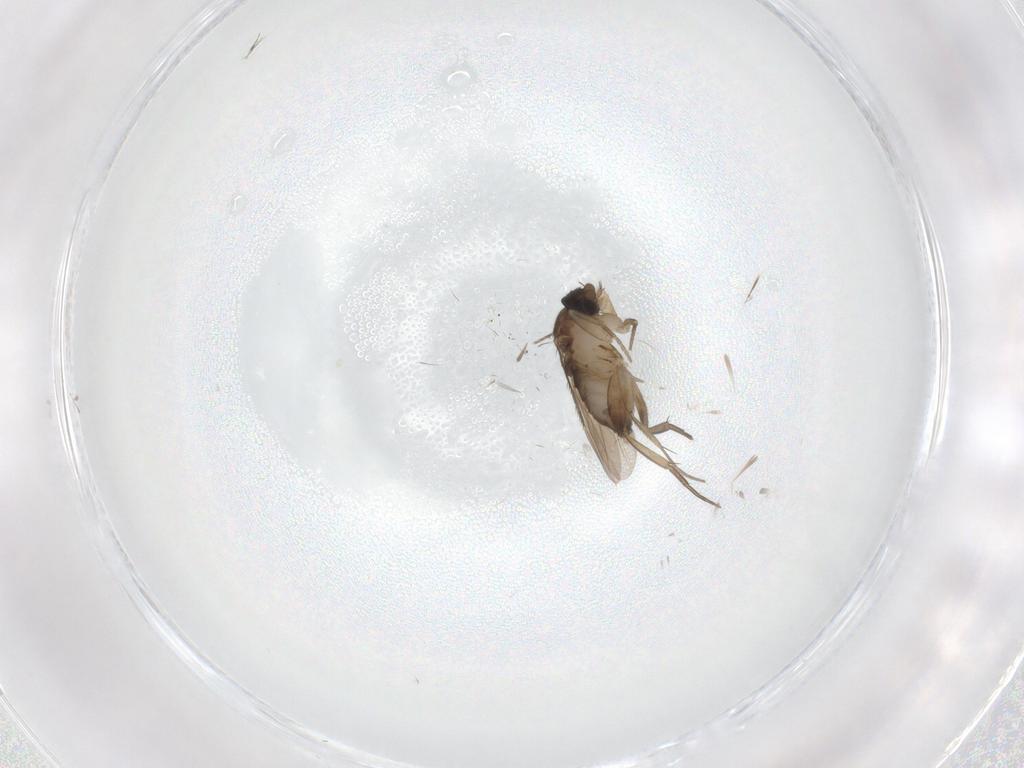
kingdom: Animalia
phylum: Arthropoda
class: Insecta
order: Diptera
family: Phoridae
